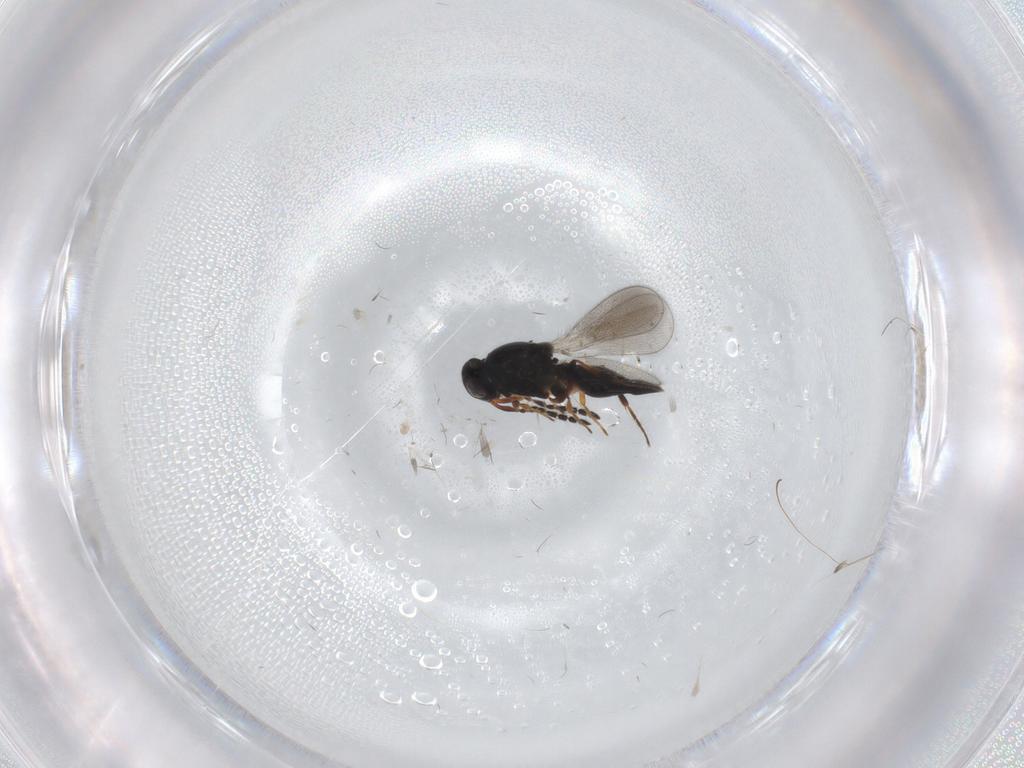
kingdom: Animalia
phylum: Arthropoda
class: Insecta
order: Hymenoptera
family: Platygastridae
